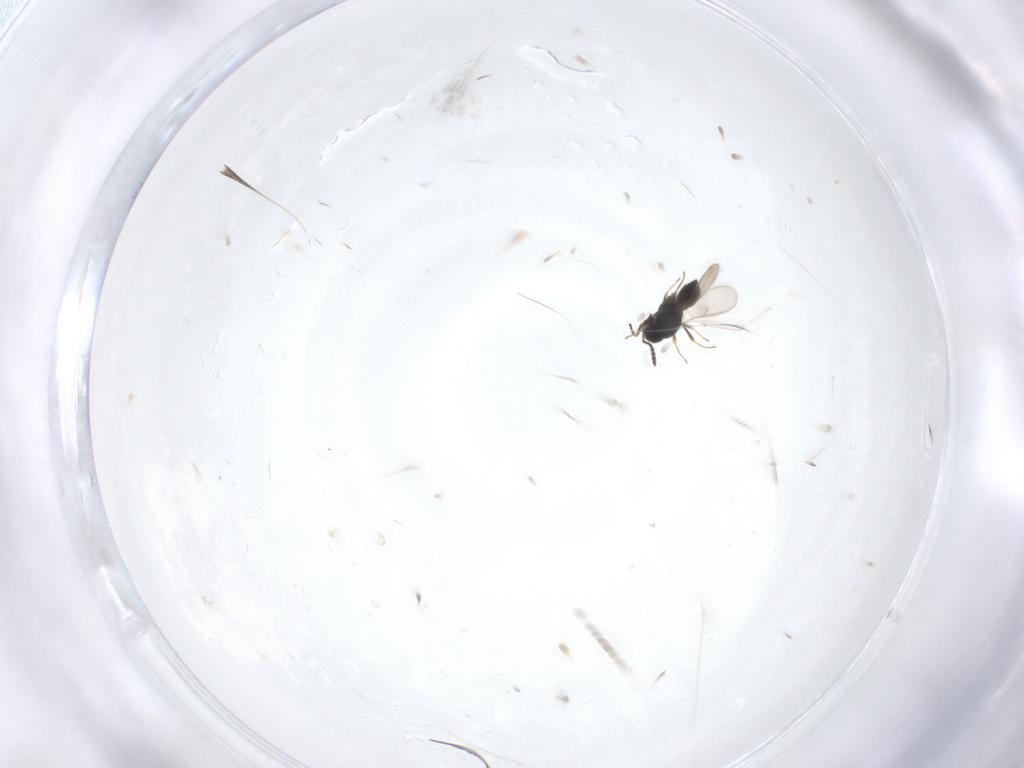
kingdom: Animalia
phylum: Arthropoda
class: Insecta
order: Hymenoptera
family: Scelionidae
